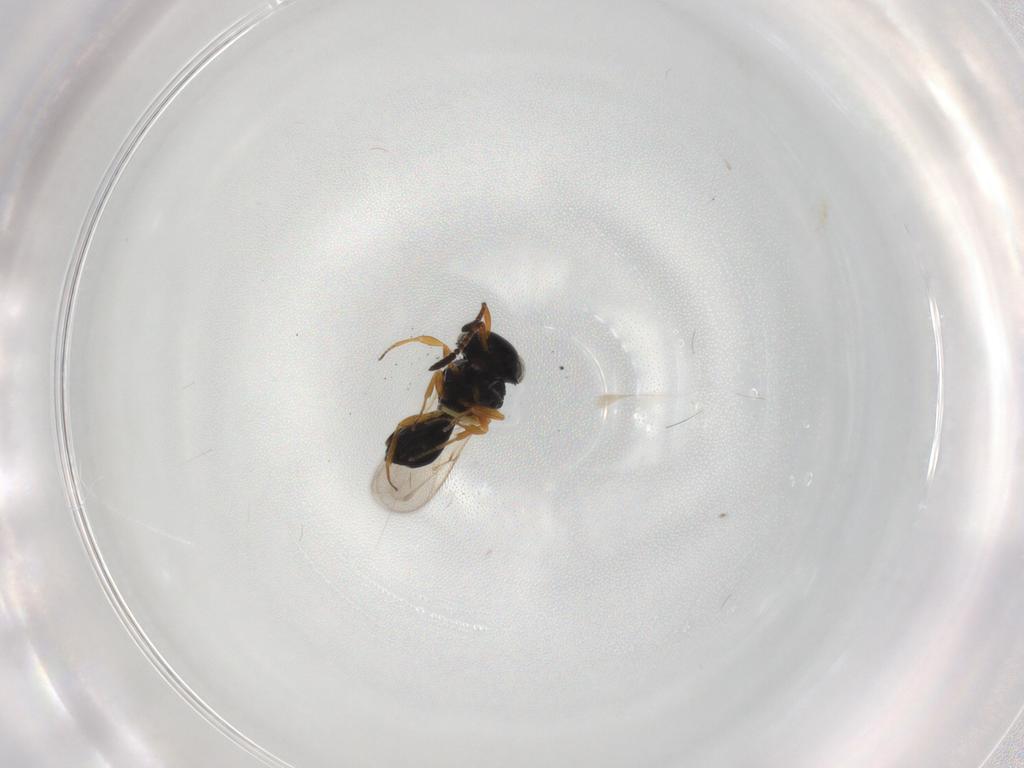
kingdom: Animalia
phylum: Arthropoda
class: Insecta
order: Hymenoptera
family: Scelionidae
